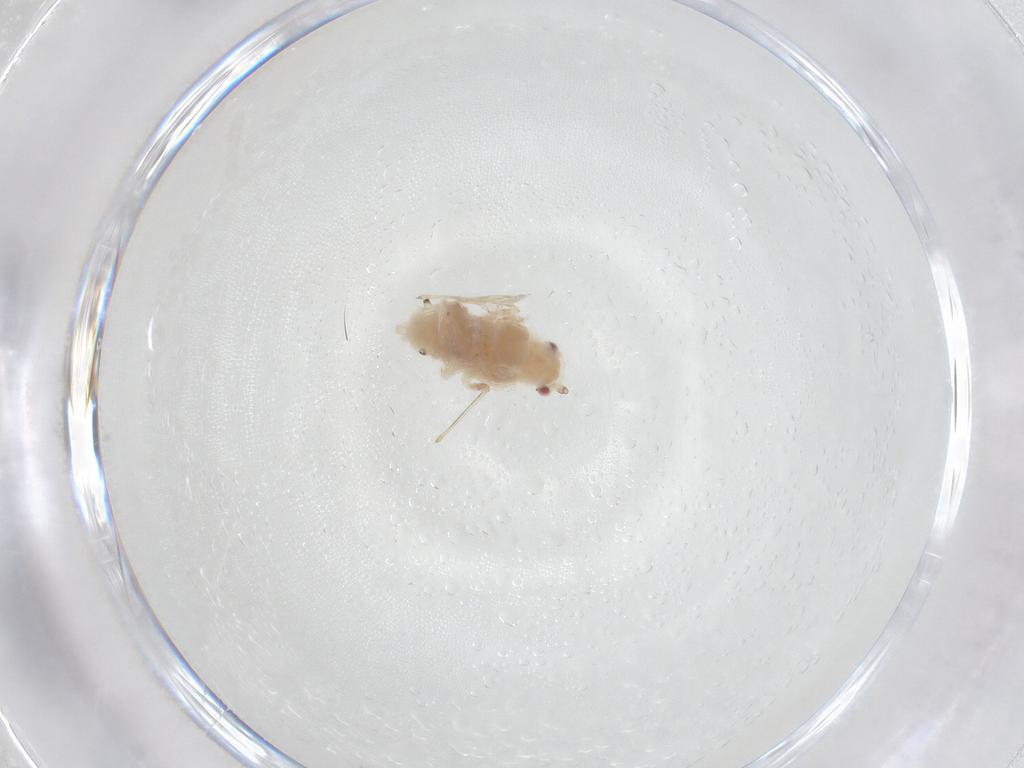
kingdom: Animalia
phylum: Arthropoda
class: Insecta
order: Hemiptera
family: Aphididae
